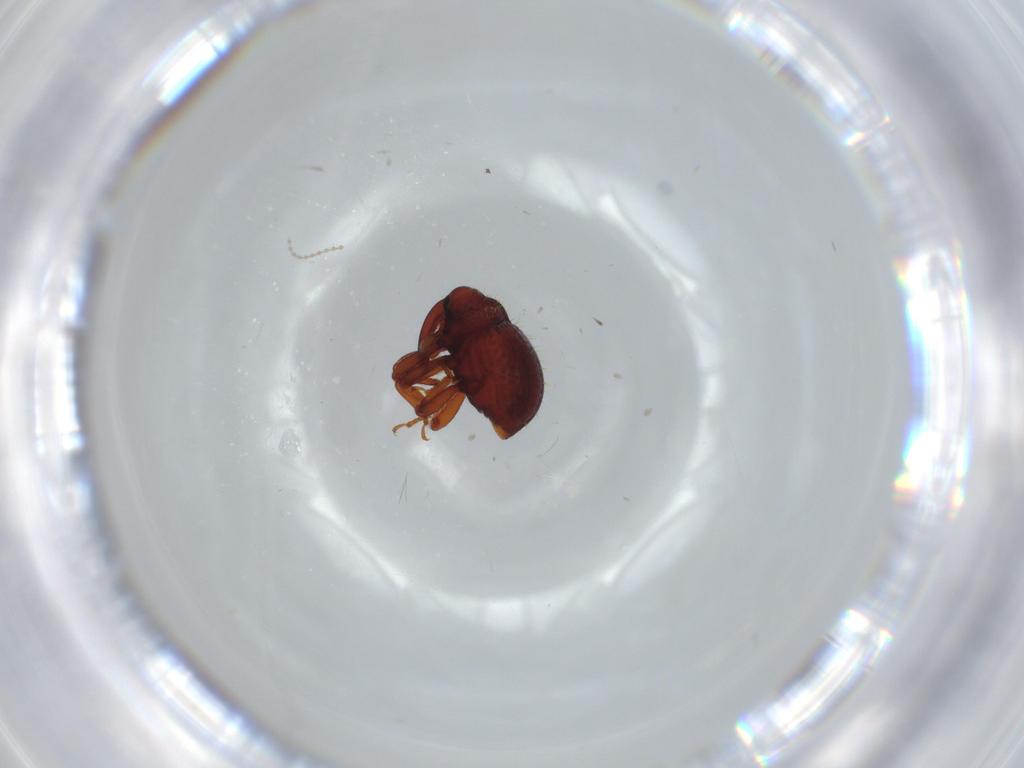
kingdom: Animalia
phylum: Arthropoda
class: Insecta
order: Coleoptera
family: Curculionidae
